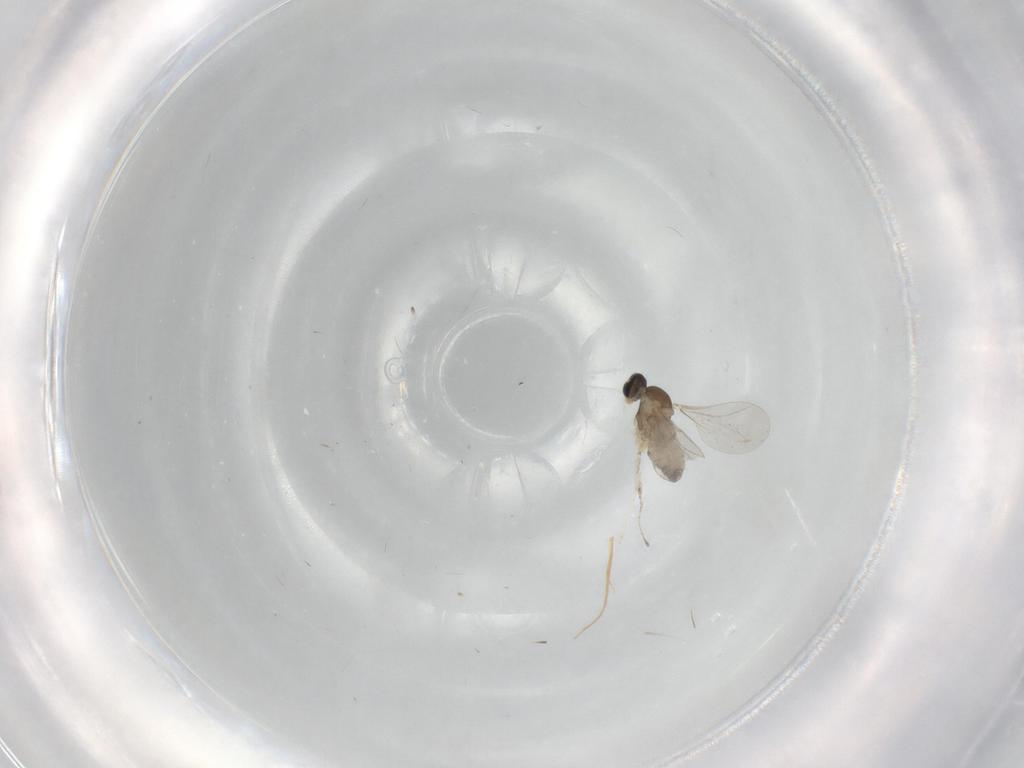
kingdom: Animalia
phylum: Arthropoda
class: Insecta
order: Diptera
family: Cecidomyiidae
